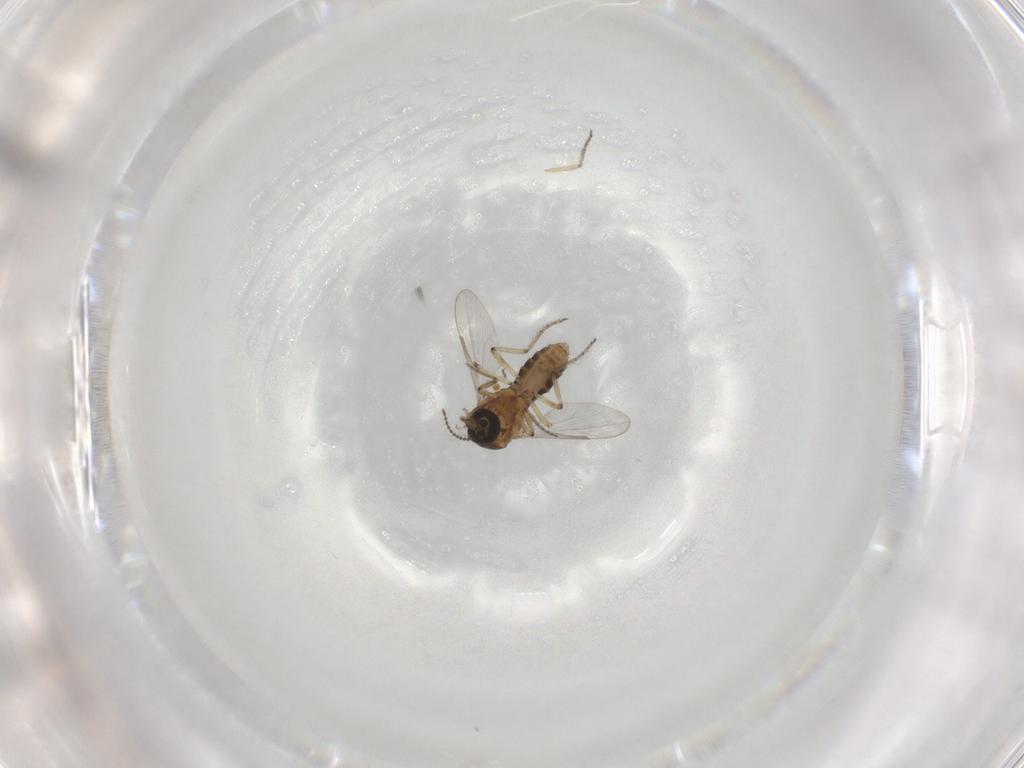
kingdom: Animalia
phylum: Arthropoda
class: Insecta
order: Diptera
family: Ceratopogonidae
